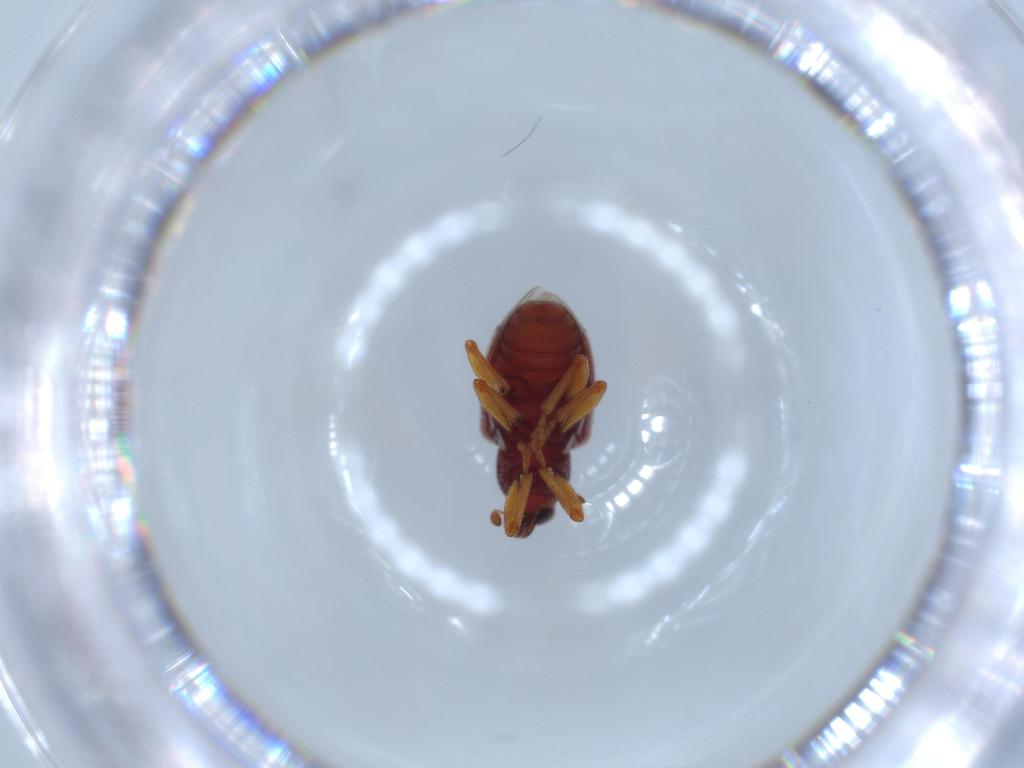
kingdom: Animalia
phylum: Arthropoda
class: Insecta
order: Coleoptera
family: Curculionidae
